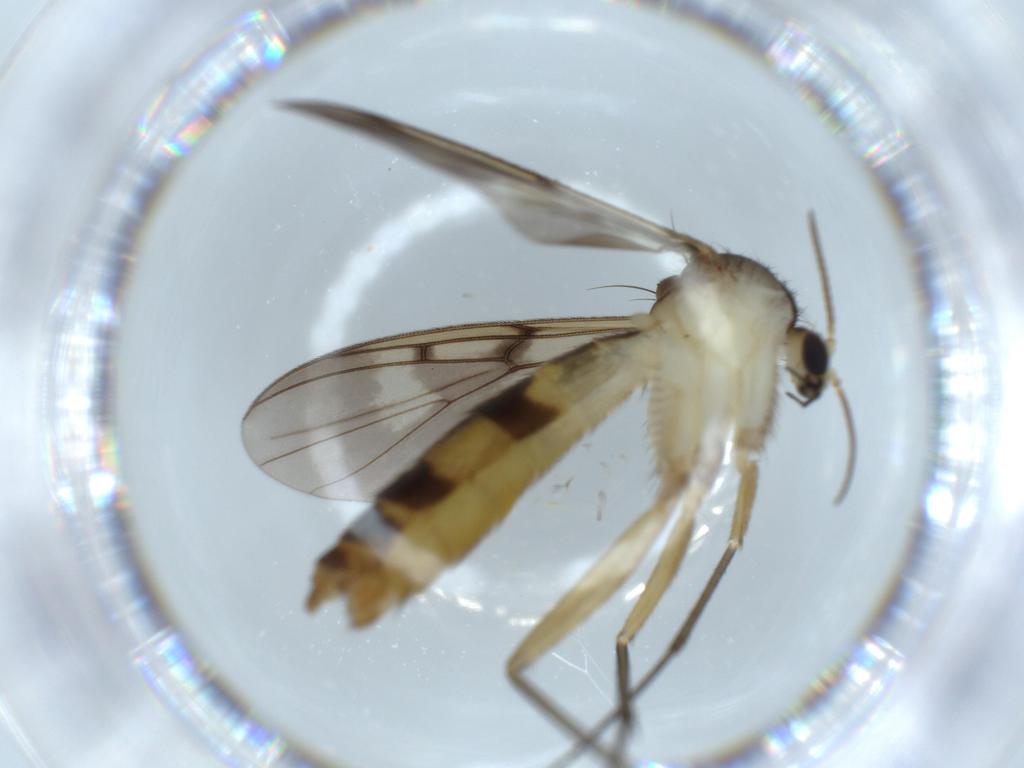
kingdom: Animalia
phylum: Arthropoda
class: Insecta
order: Diptera
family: Mycetophilidae
